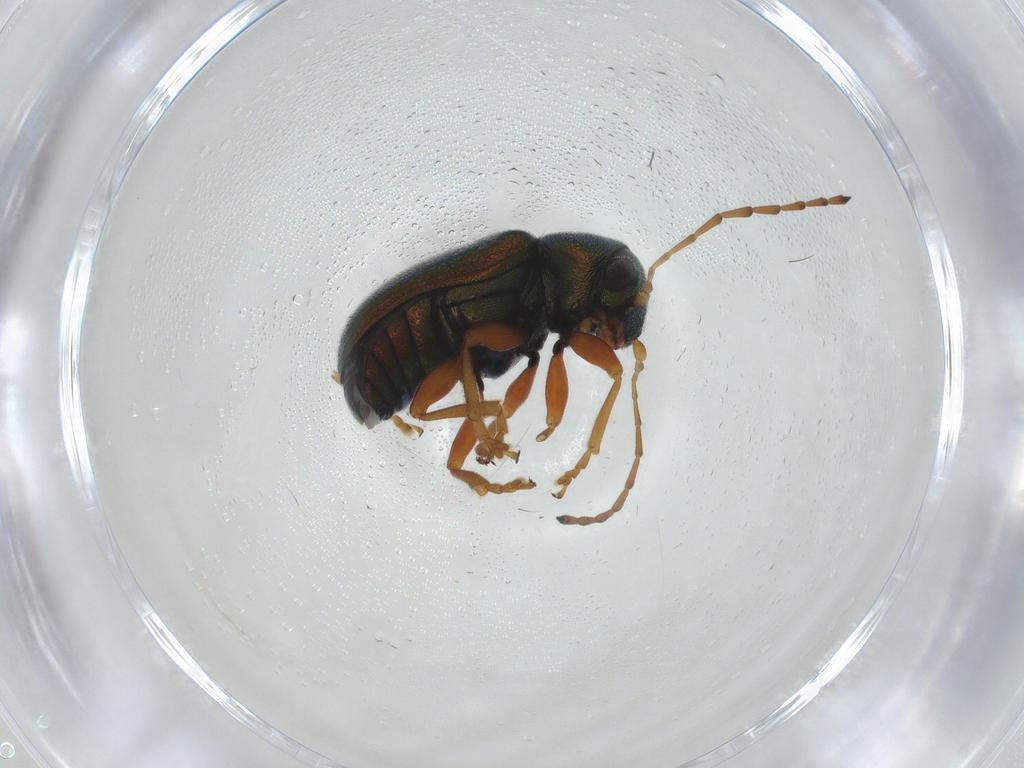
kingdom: Animalia
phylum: Arthropoda
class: Insecta
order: Coleoptera
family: Chrysomelidae
